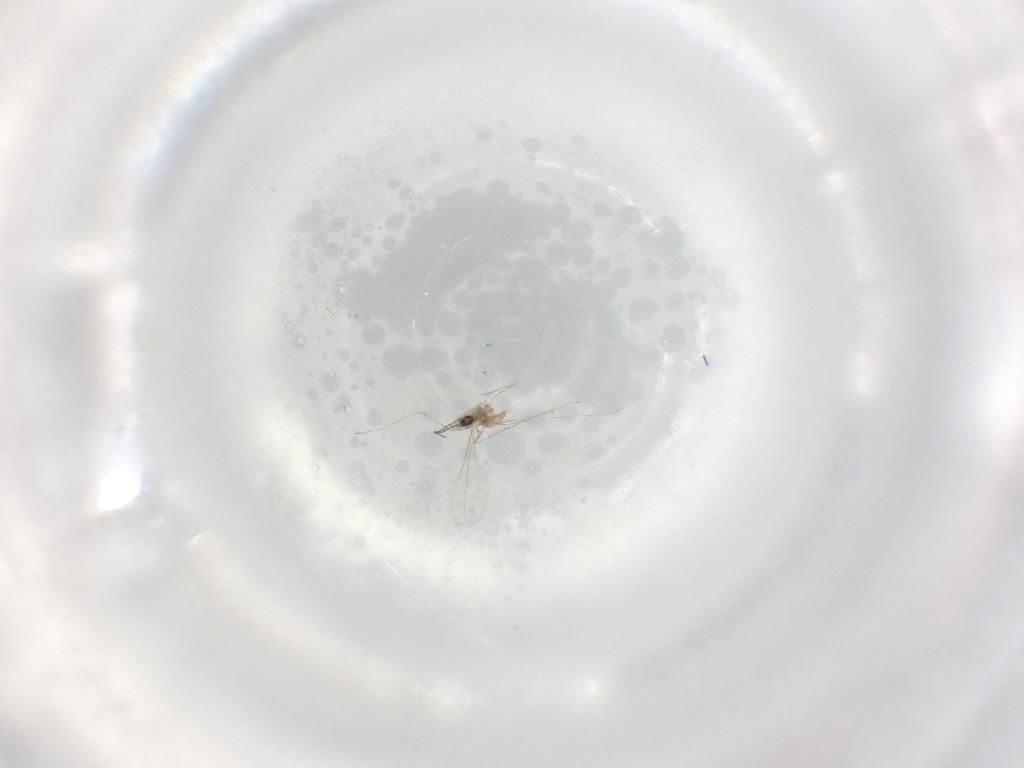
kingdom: Animalia
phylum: Arthropoda
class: Insecta
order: Diptera
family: Cecidomyiidae
